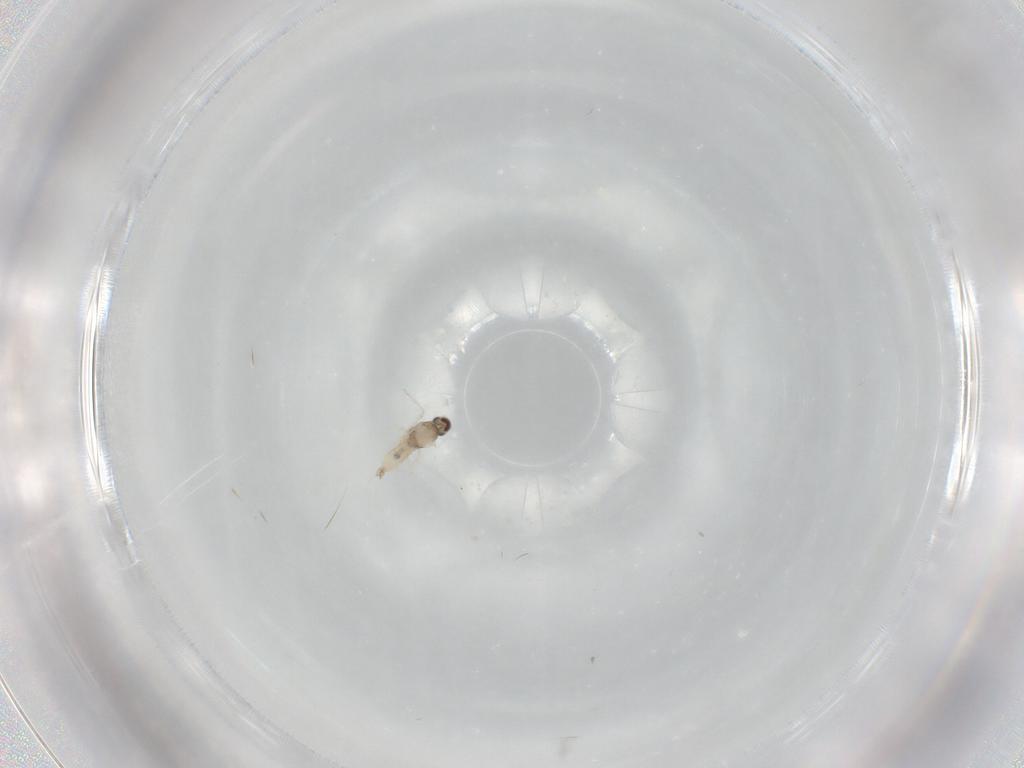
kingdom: Animalia
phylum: Arthropoda
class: Insecta
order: Diptera
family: Cecidomyiidae
